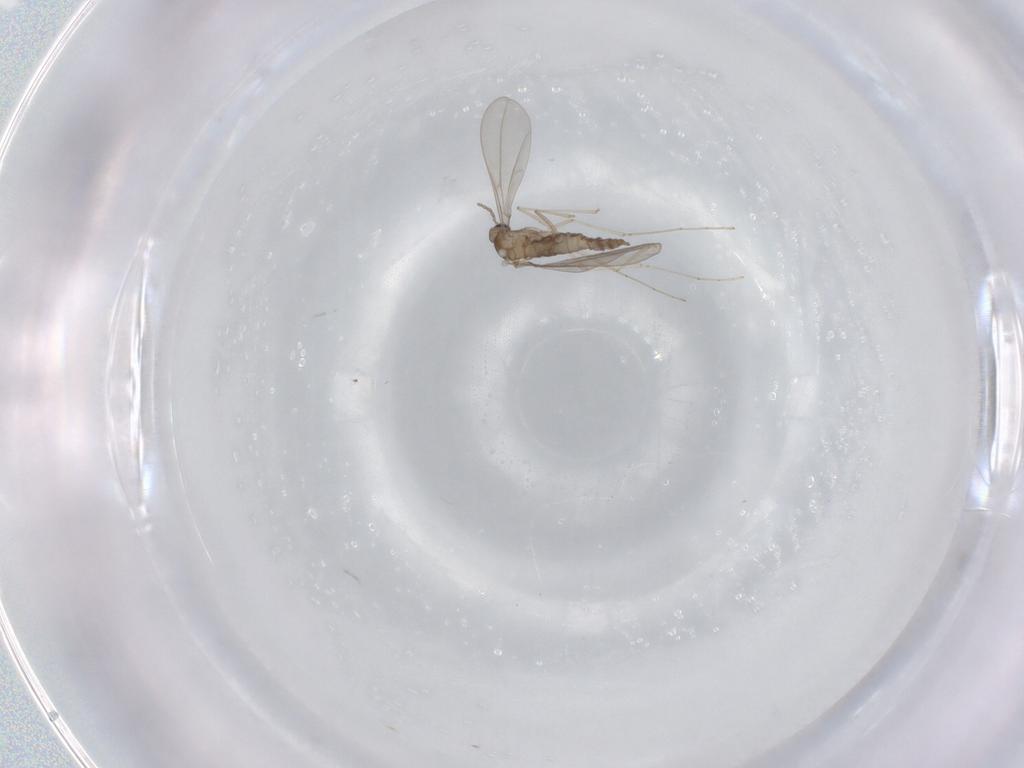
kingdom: Animalia
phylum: Arthropoda
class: Insecta
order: Diptera
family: Cecidomyiidae
